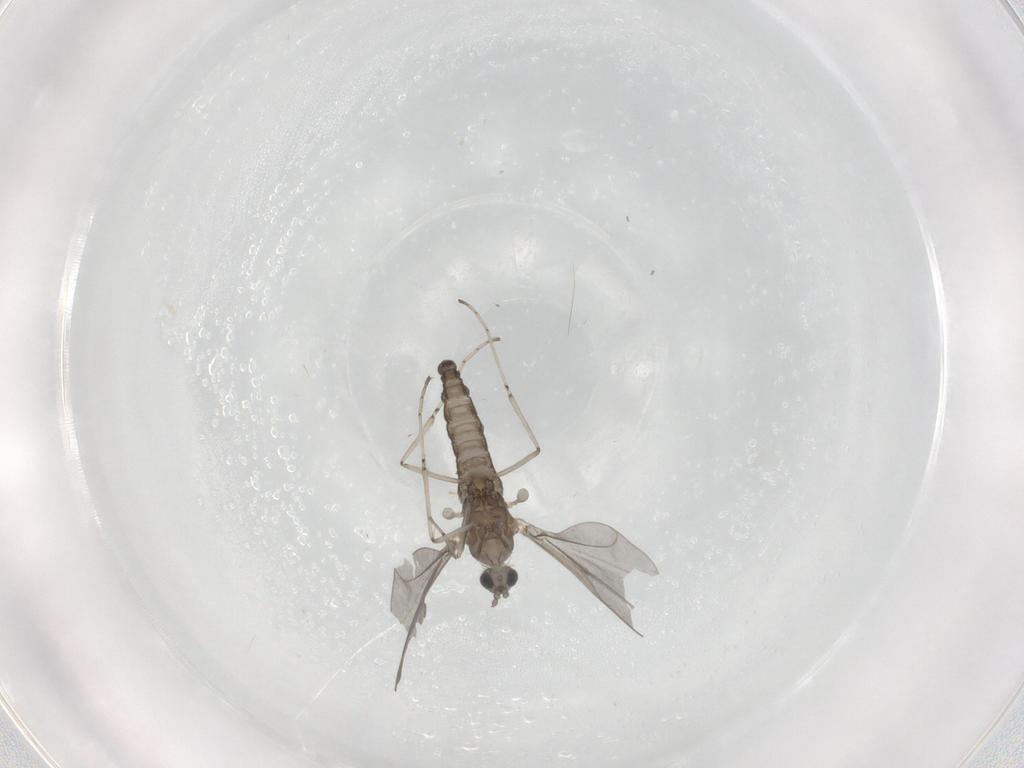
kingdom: Animalia
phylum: Arthropoda
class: Insecta
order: Diptera
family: Cecidomyiidae
